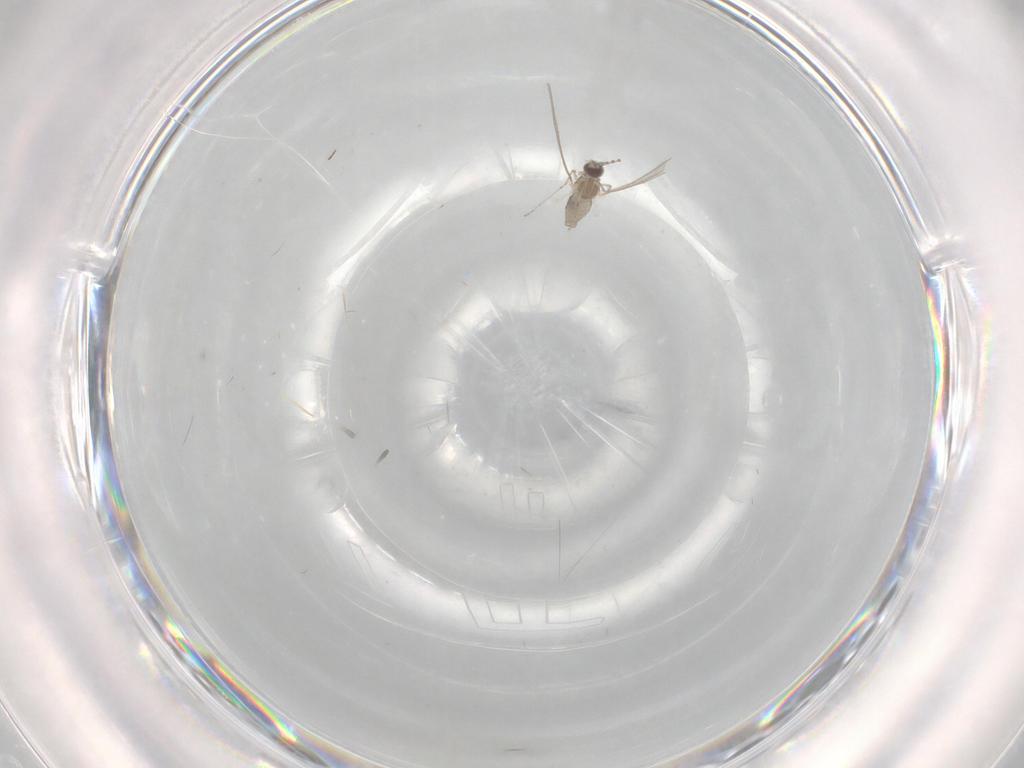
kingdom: Animalia
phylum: Arthropoda
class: Insecta
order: Diptera
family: Cecidomyiidae
